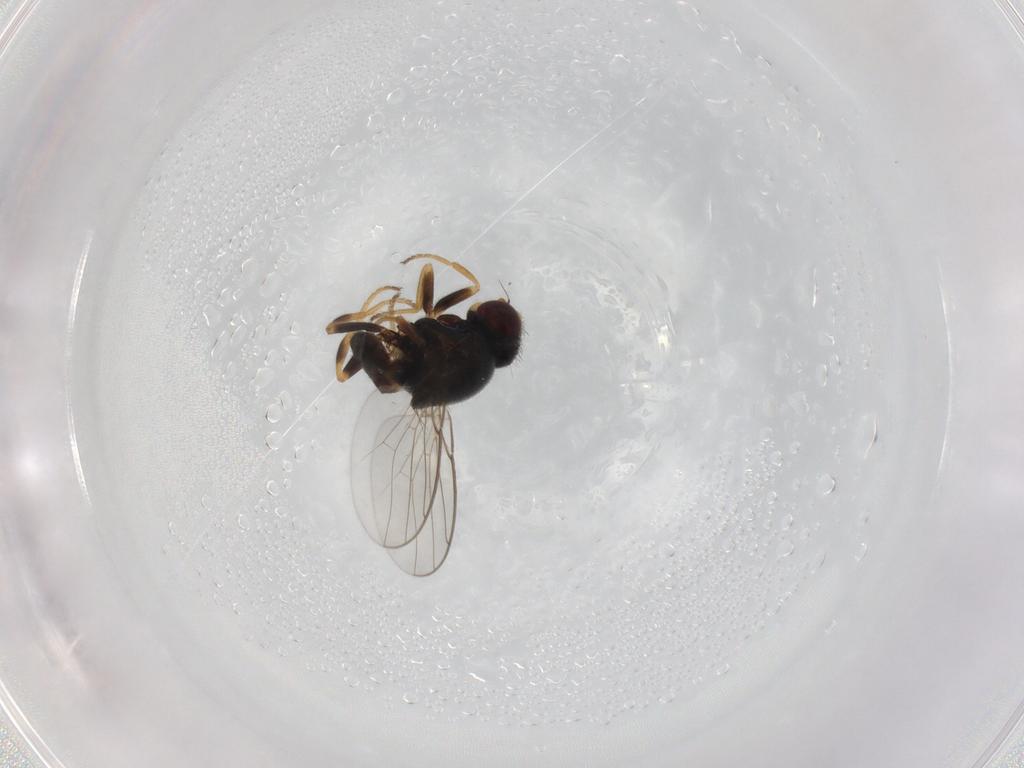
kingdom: Animalia
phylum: Arthropoda
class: Insecta
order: Diptera
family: Chloropidae
